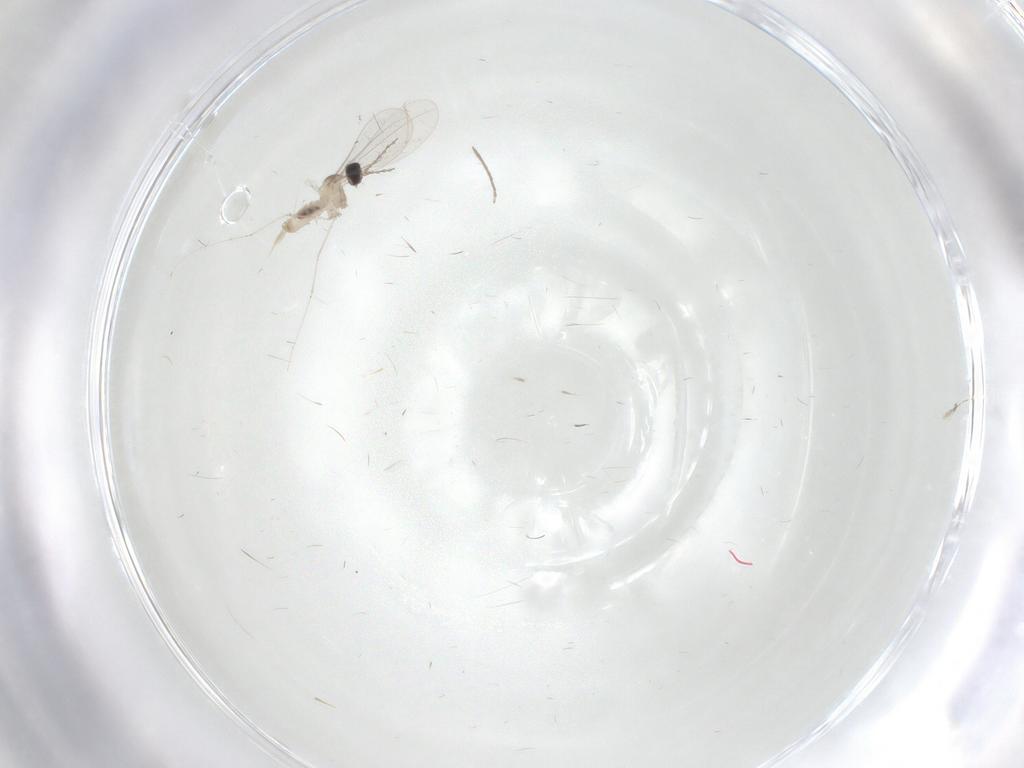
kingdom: Animalia
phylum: Arthropoda
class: Insecta
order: Diptera
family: Cecidomyiidae
